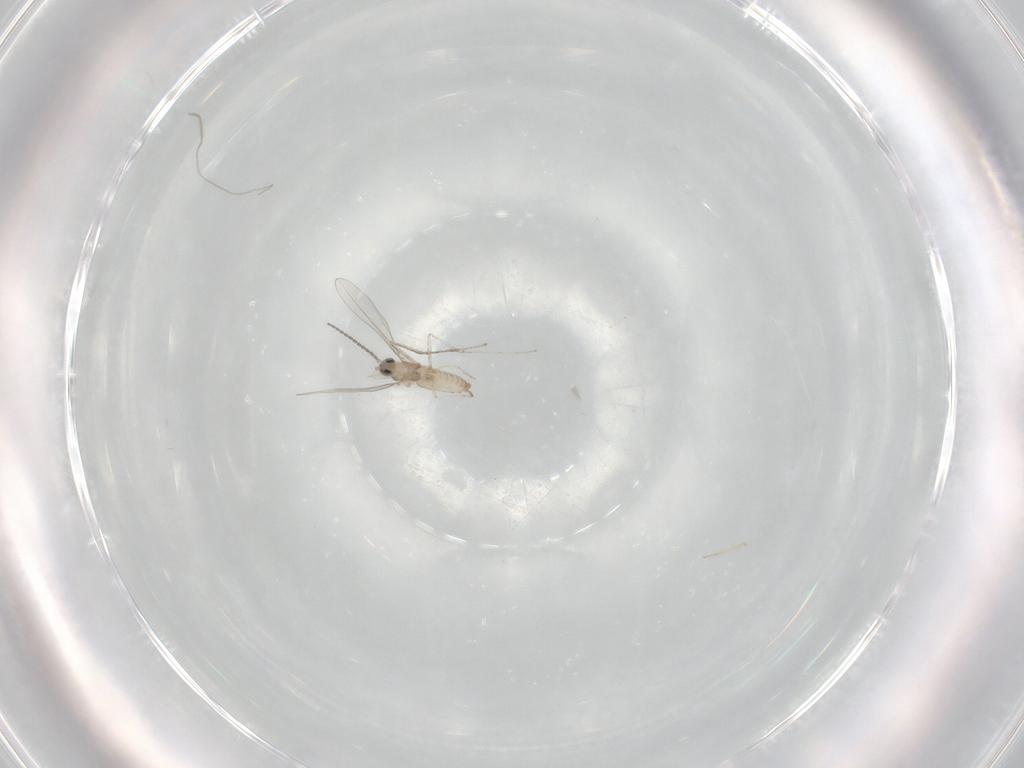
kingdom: Animalia
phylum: Arthropoda
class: Insecta
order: Diptera
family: Cecidomyiidae
